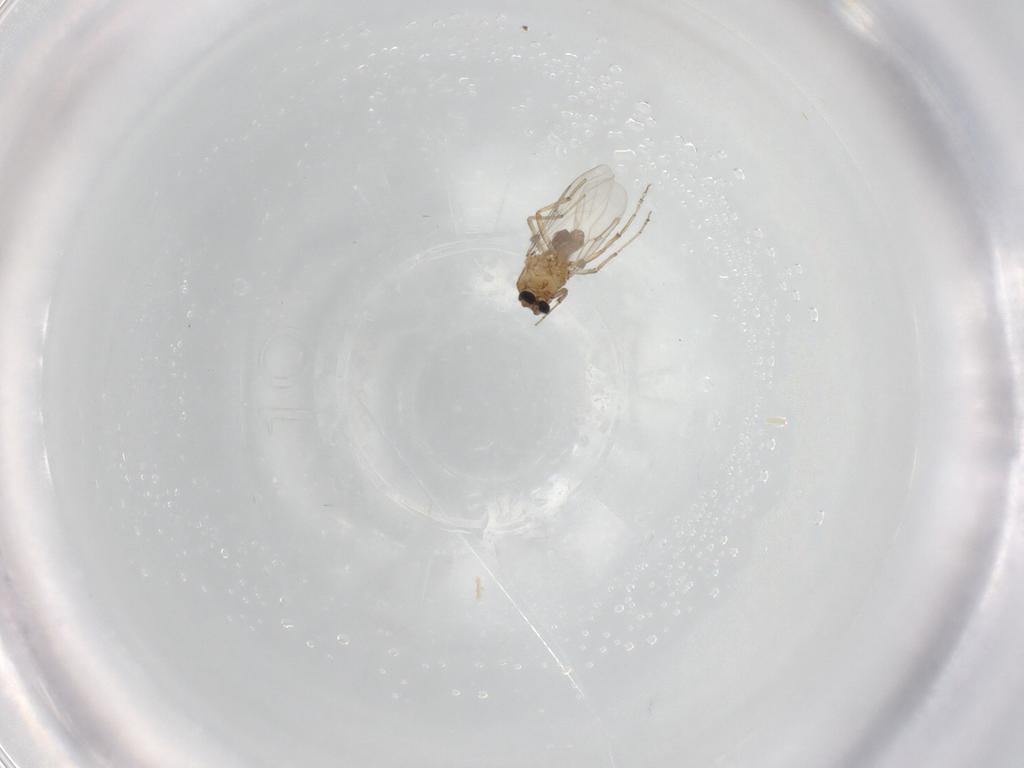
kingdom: Animalia
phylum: Arthropoda
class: Insecta
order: Diptera
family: Ceratopogonidae
